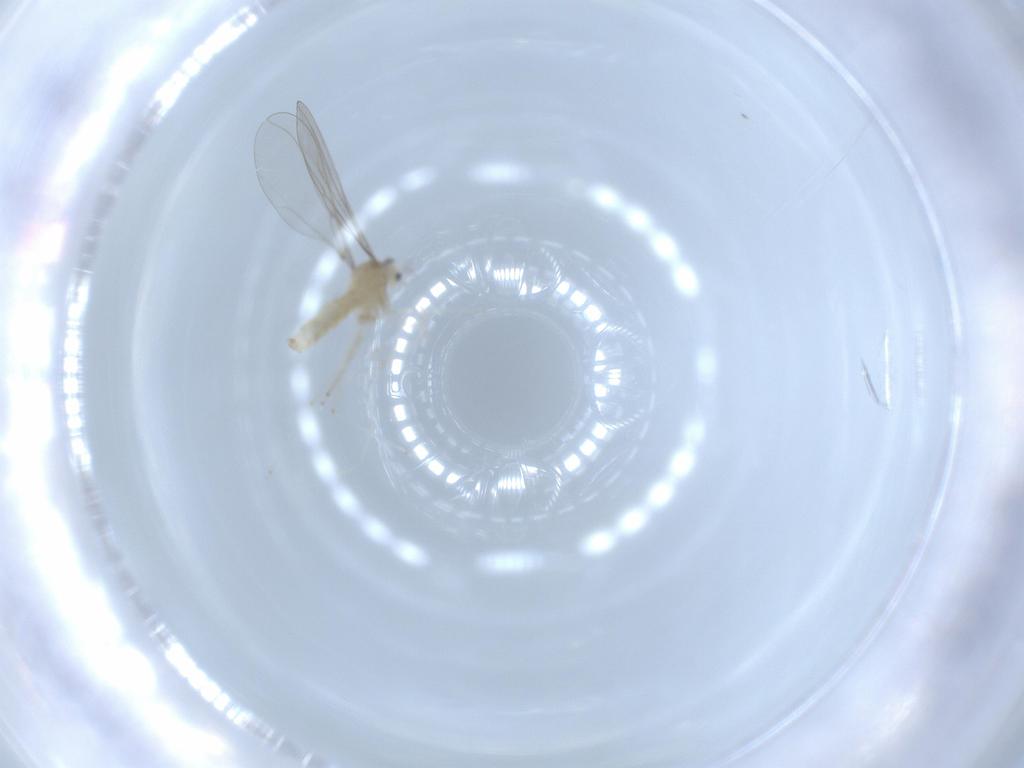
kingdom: Animalia
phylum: Arthropoda
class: Insecta
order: Diptera
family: Cecidomyiidae
